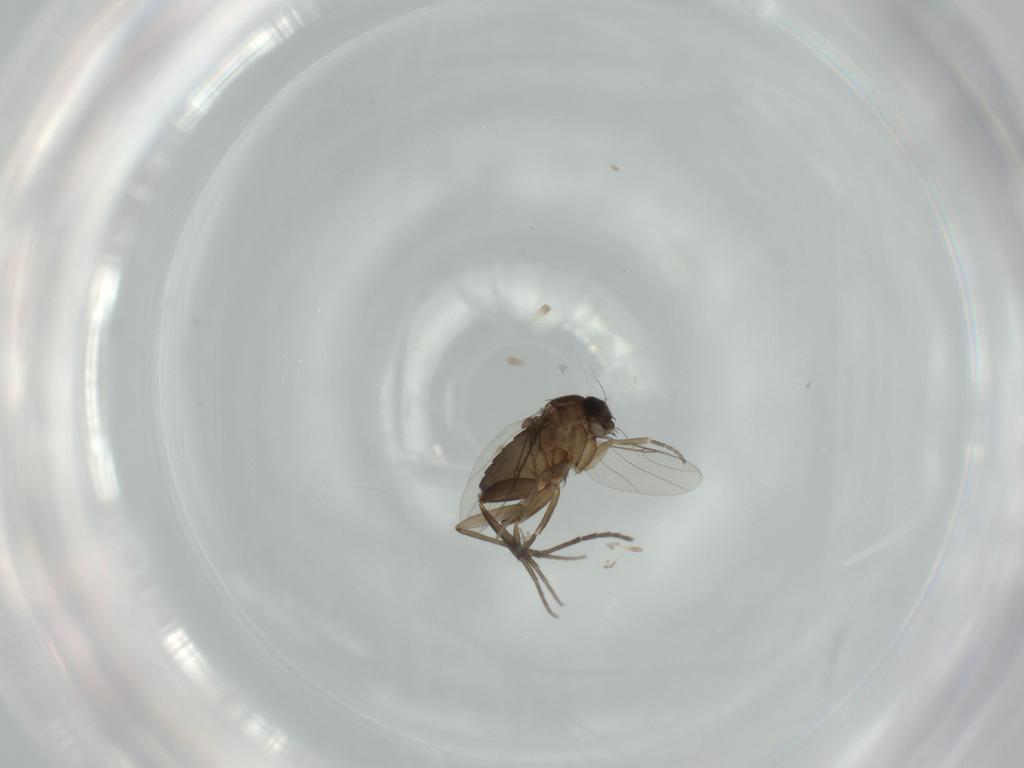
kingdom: Animalia
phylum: Arthropoda
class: Insecta
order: Diptera
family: Phoridae
